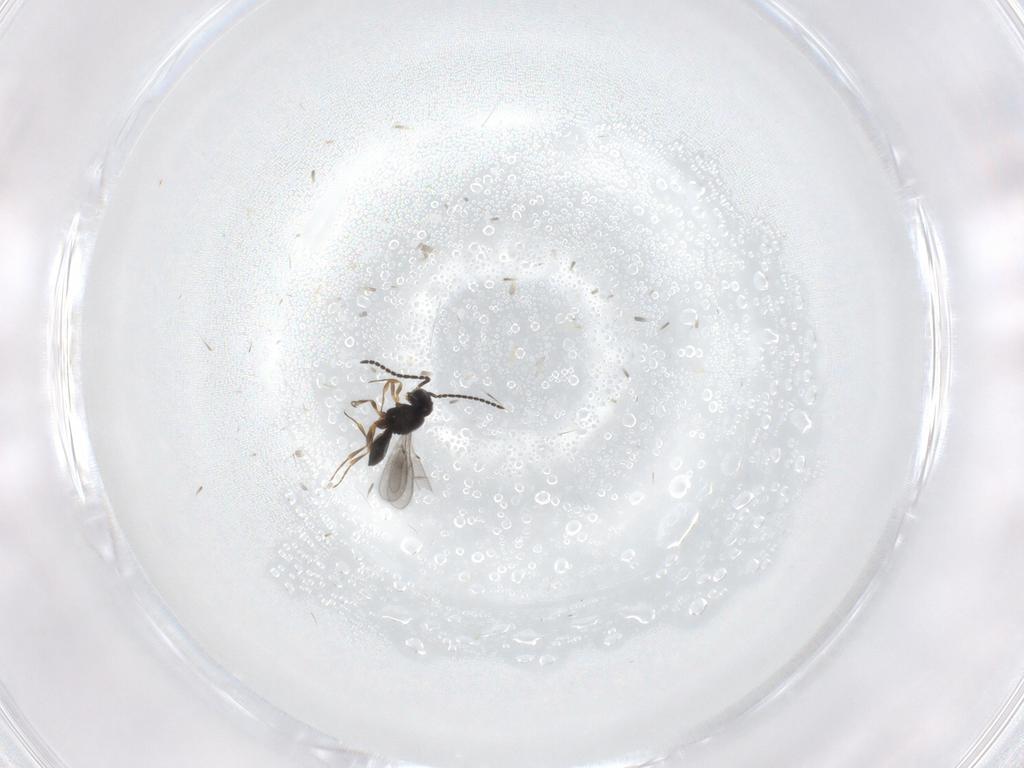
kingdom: Animalia
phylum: Arthropoda
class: Insecta
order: Hymenoptera
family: Scelionidae
